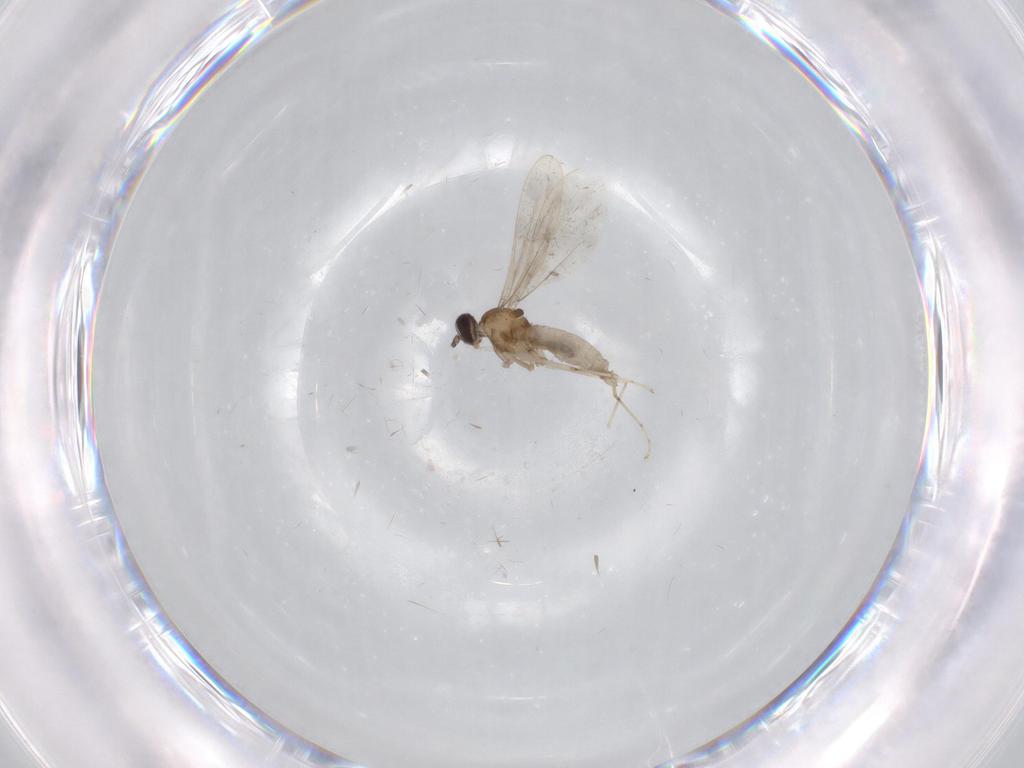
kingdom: Animalia
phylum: Arthropoda
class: Insecta
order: Diptera
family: Limoniidae
